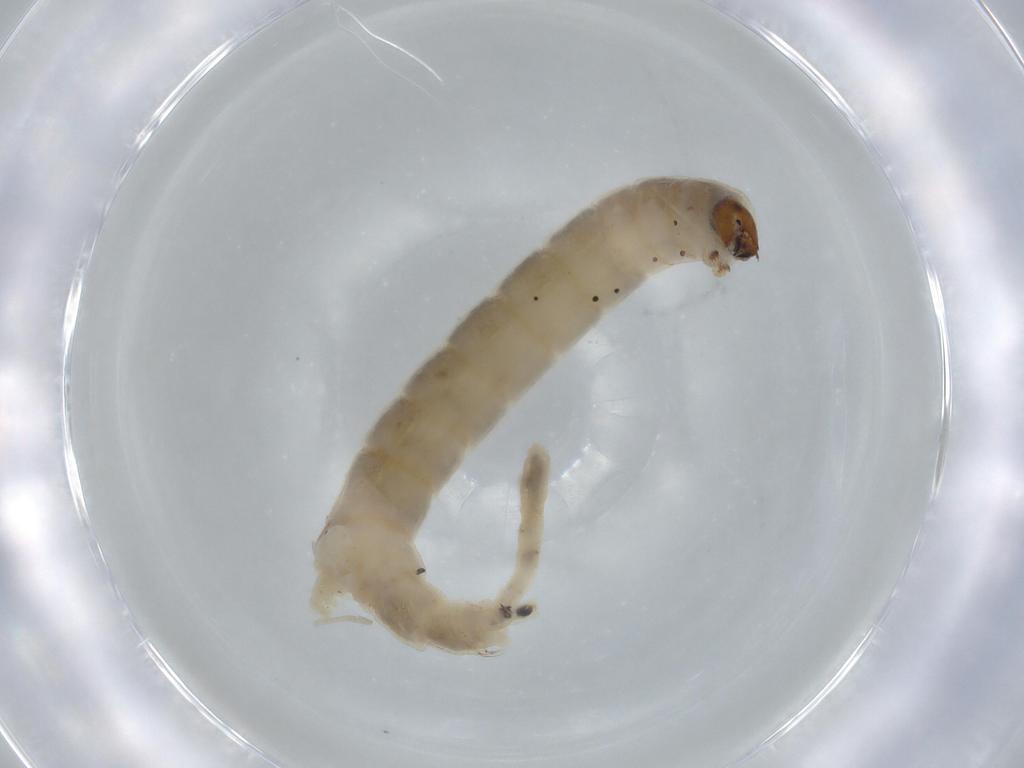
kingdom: Animalia
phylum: Arthropoda
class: Insecta
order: Diptera
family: Chironomidae
